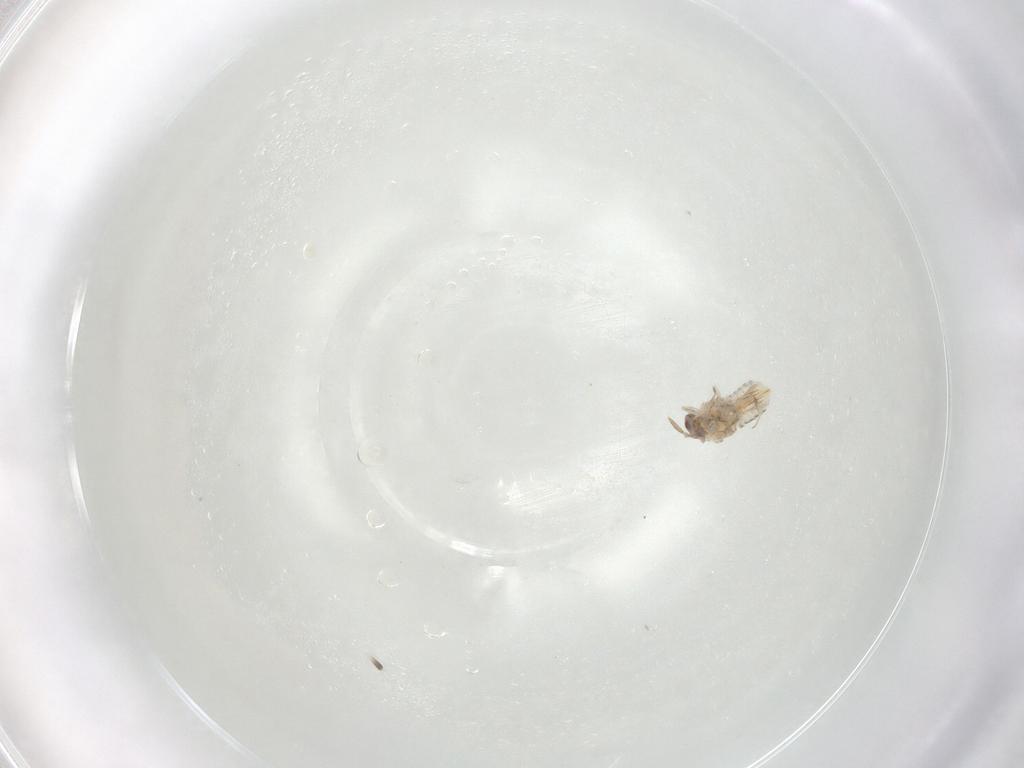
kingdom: Animalia
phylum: Arthropoda
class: Insecta
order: Hymenoptera
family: Aphelinidae
